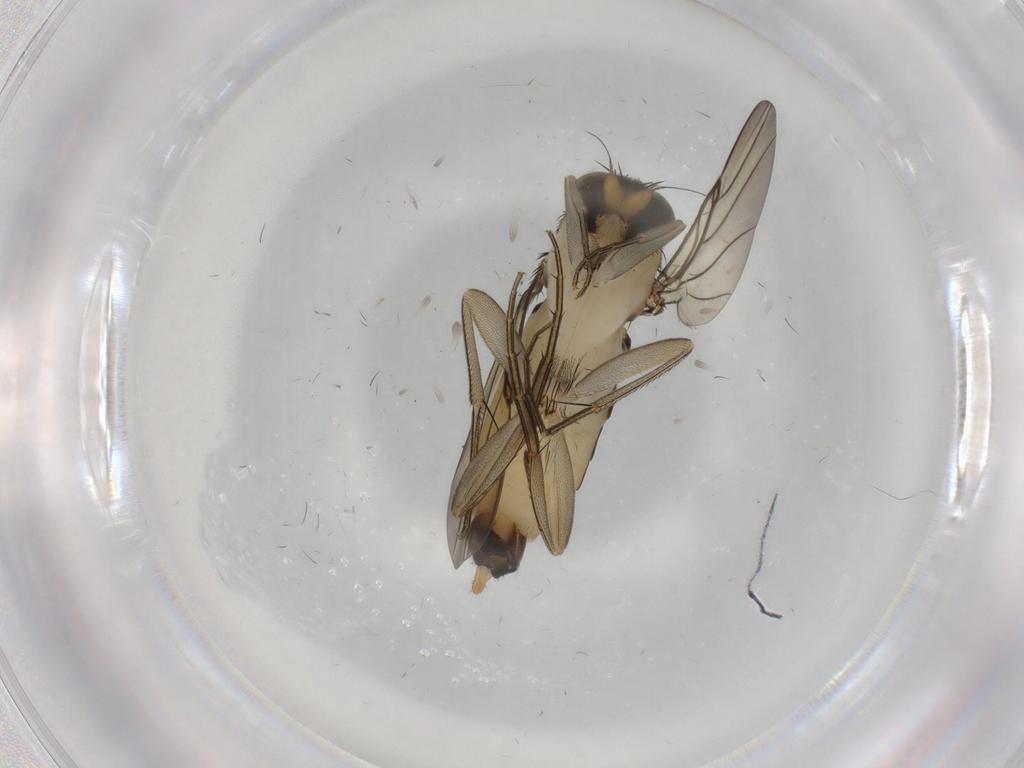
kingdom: Animalia
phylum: Arthropoda
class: Insecta
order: Diptera
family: Phoridae
